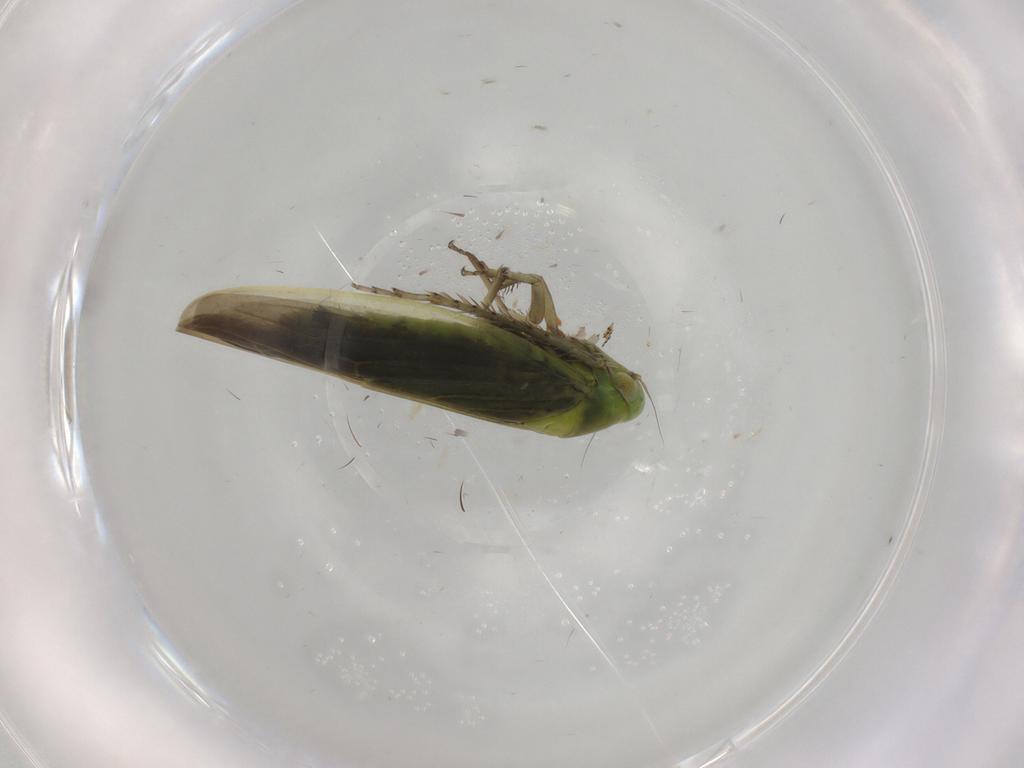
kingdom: Animalia
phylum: Arthropoda
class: Insecta
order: Hemiptera
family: Cicadellidae
